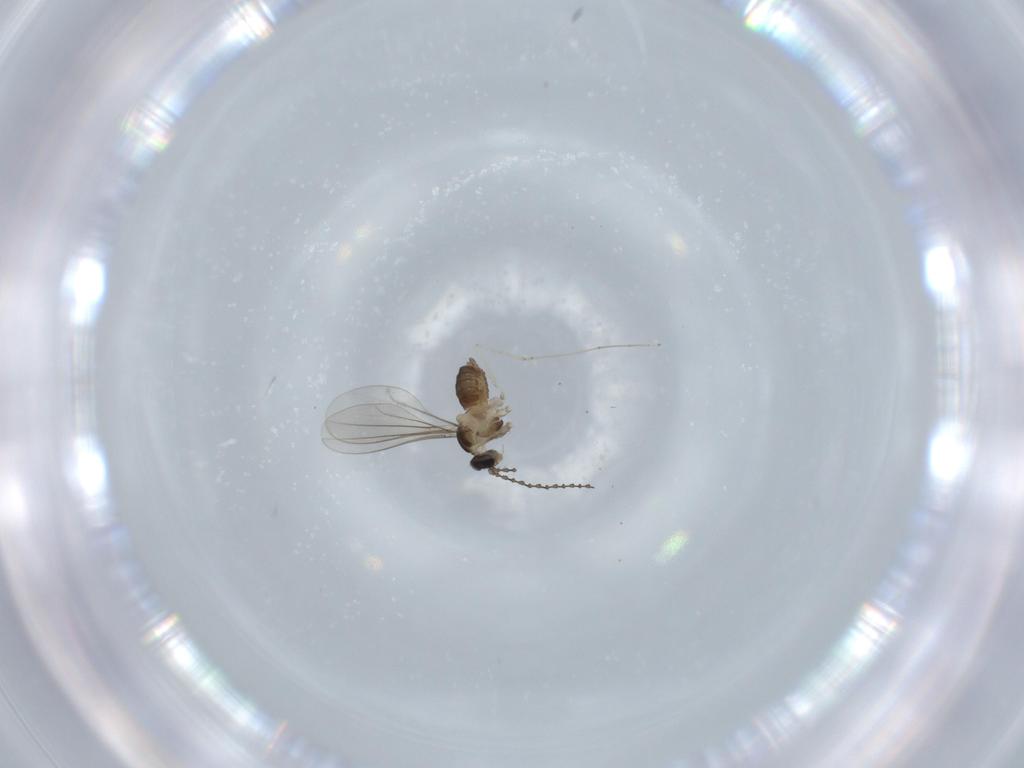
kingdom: Animalia
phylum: Arthropoda
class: Insecta
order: Diptera
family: Cecidomyiidae
